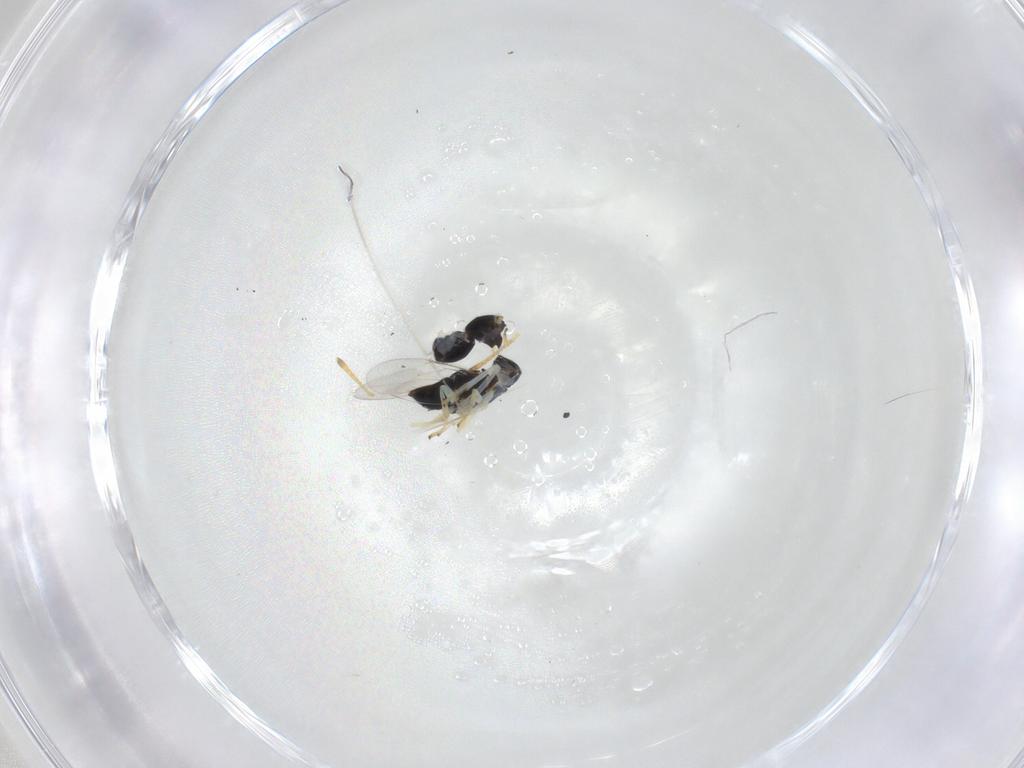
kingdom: Animalia
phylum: Arthropoda
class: Insecta
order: Hymenoptera
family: Encyrtidae
